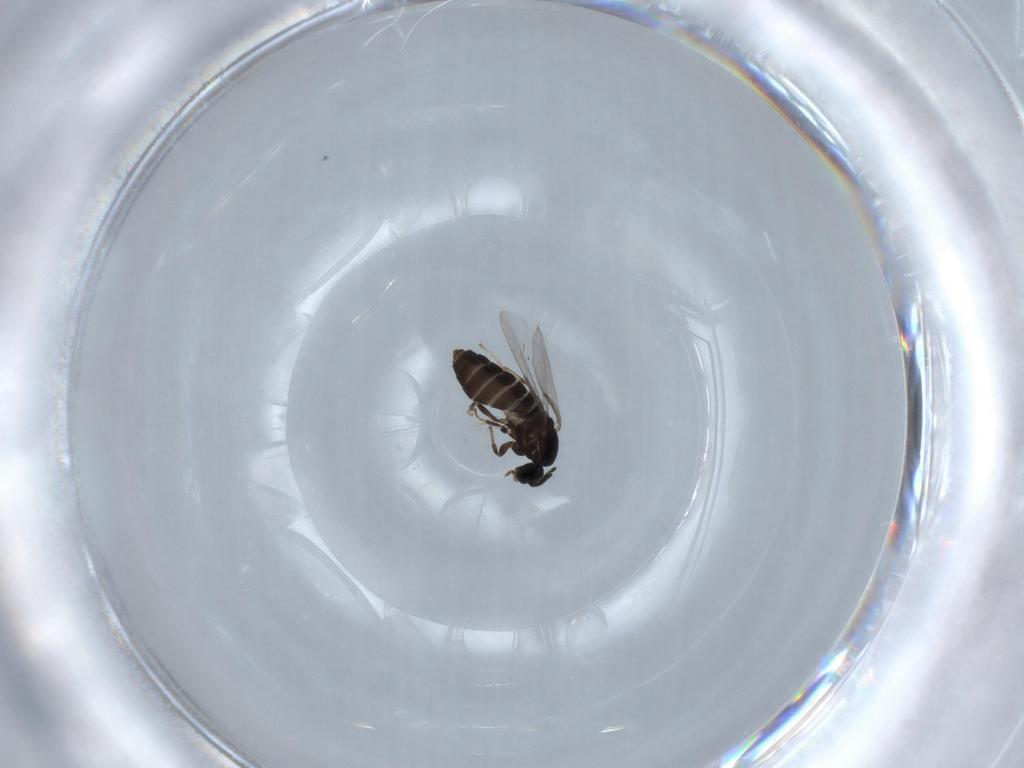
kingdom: Animalia
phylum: Arthropoda
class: Insecta
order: Diptera
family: Scatopsidae
